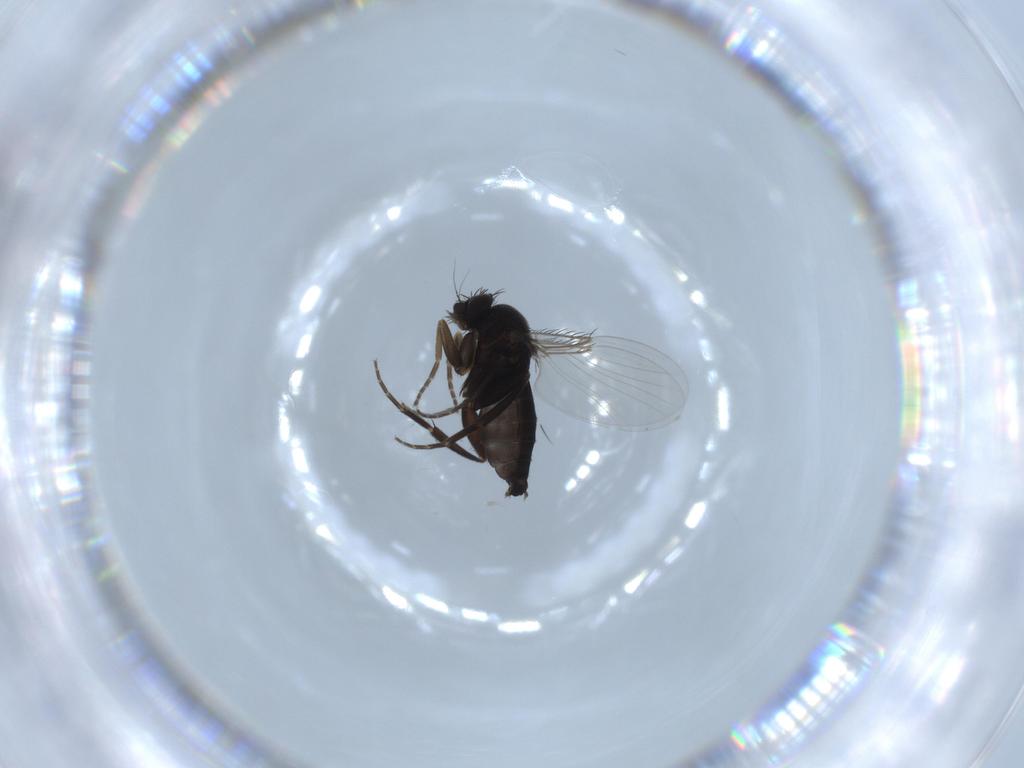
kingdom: Animalia
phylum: Arthropoda
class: Insecta
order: Diptera
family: Phoridae
